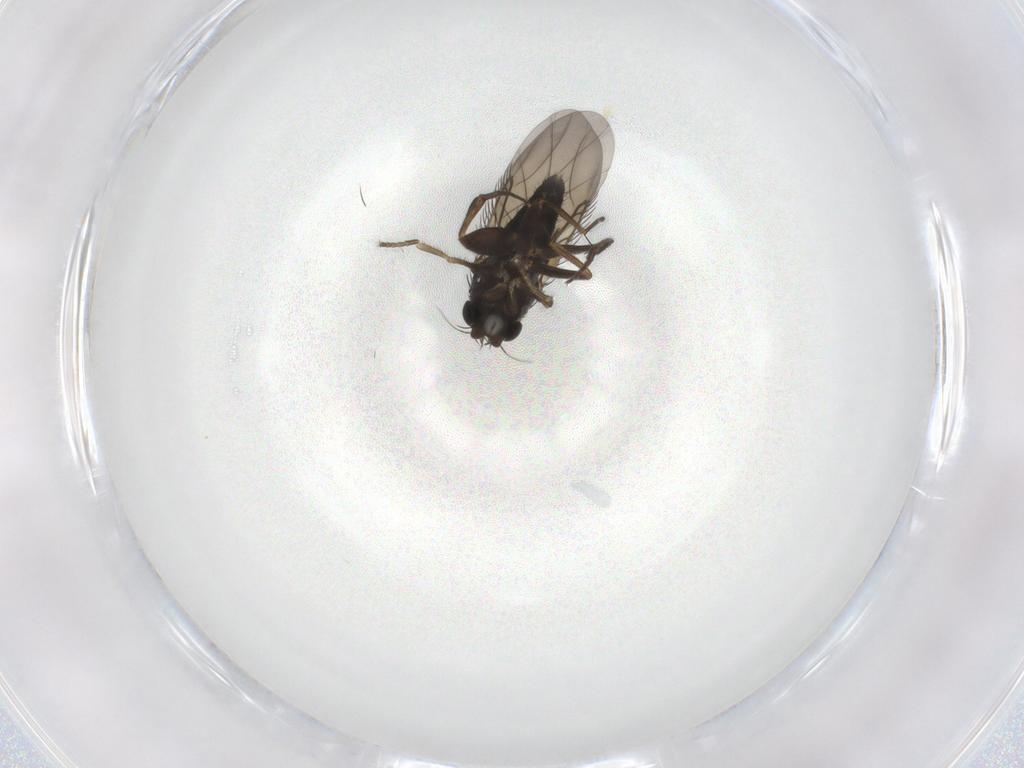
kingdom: Animalia
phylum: Arthropoda
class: Insecta
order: Diptera
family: Phoridae
